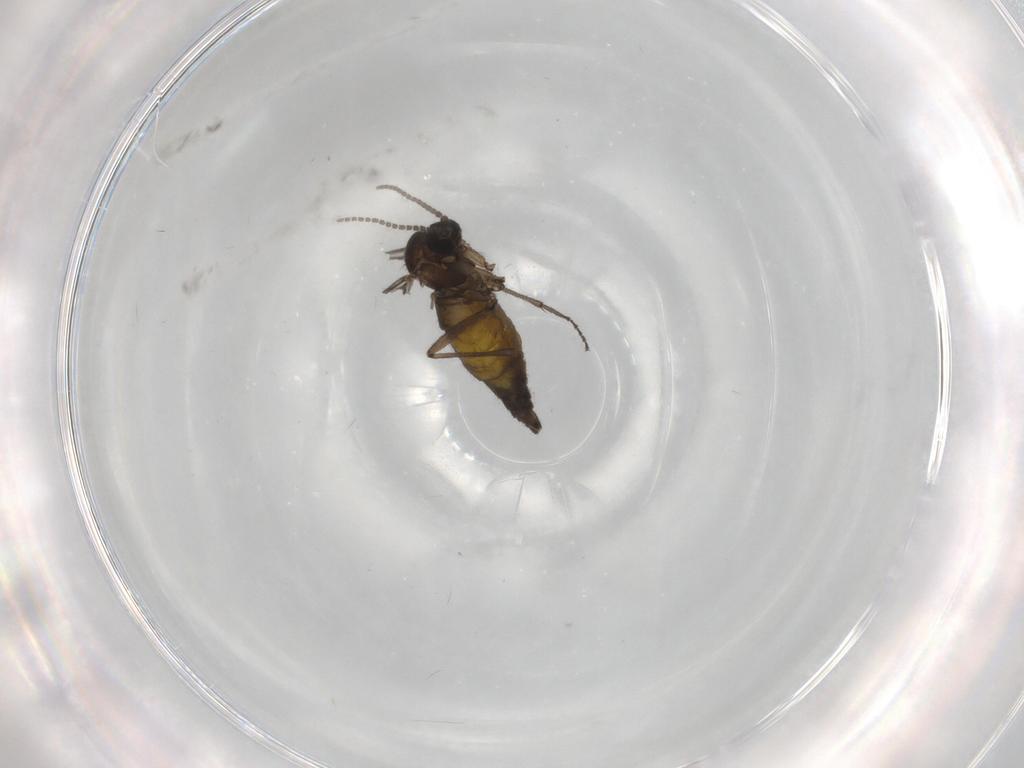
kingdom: Animalia
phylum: Arthropoda
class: Insecta
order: Diptera
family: Sciaridae
